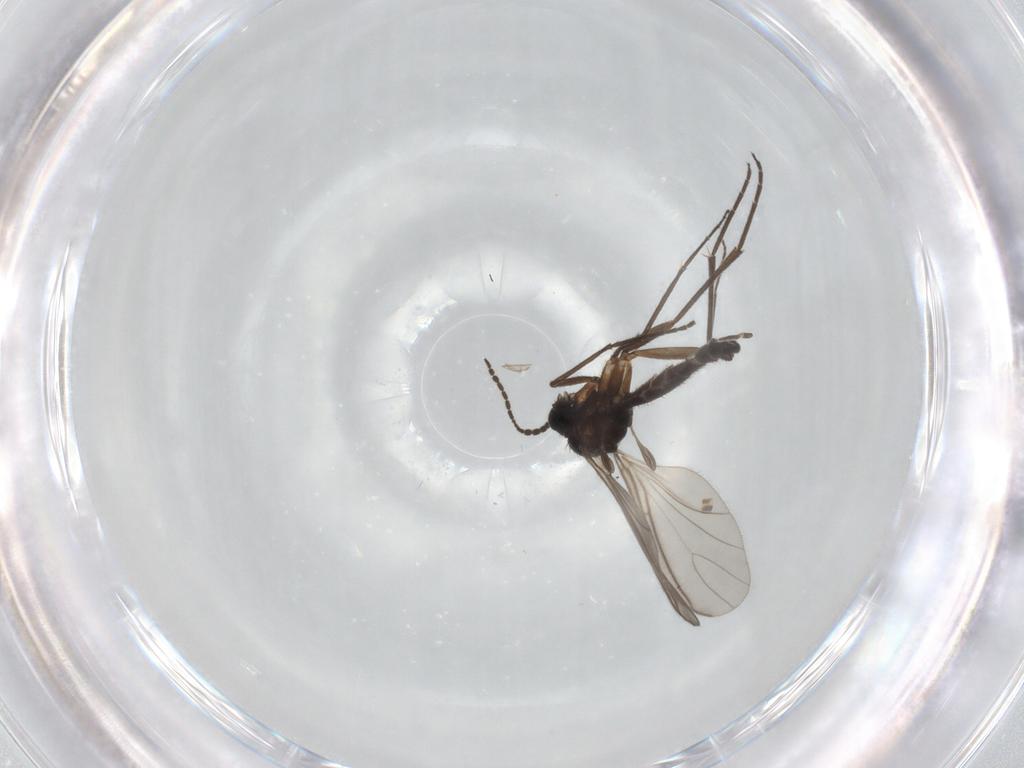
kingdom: Animalia
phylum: Arthropoda
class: Insecta
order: Diptera
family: Sciaridae
